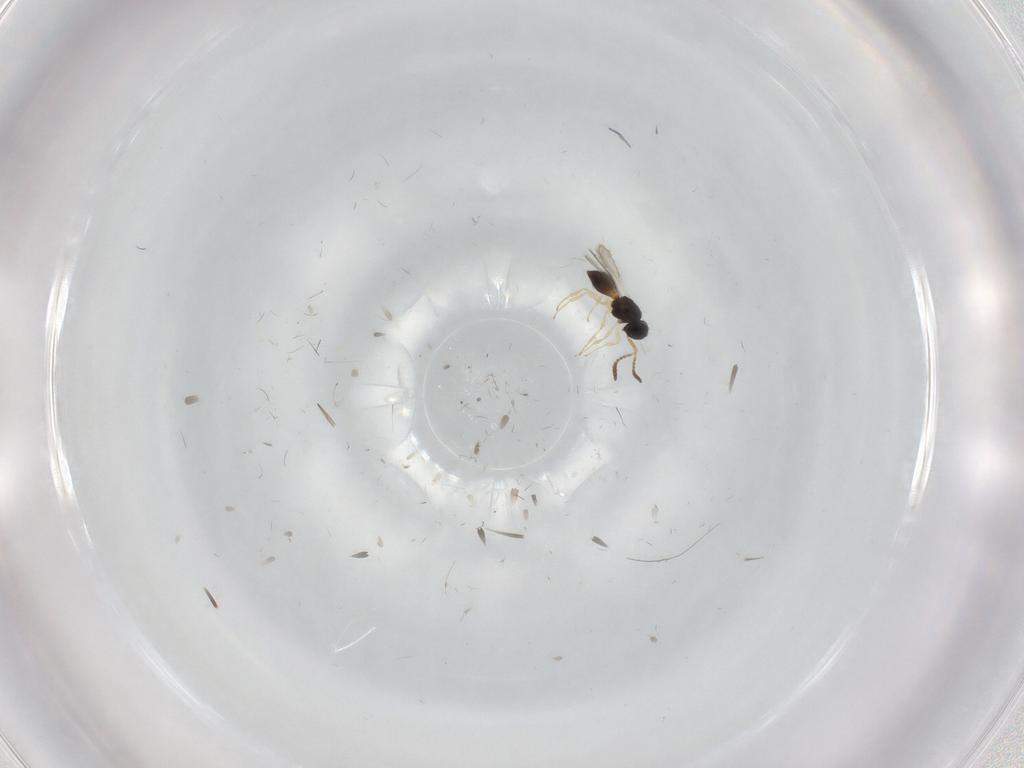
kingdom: Animalia
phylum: Arthropoda
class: Insecta
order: Hymenoptera
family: Scelionidae
